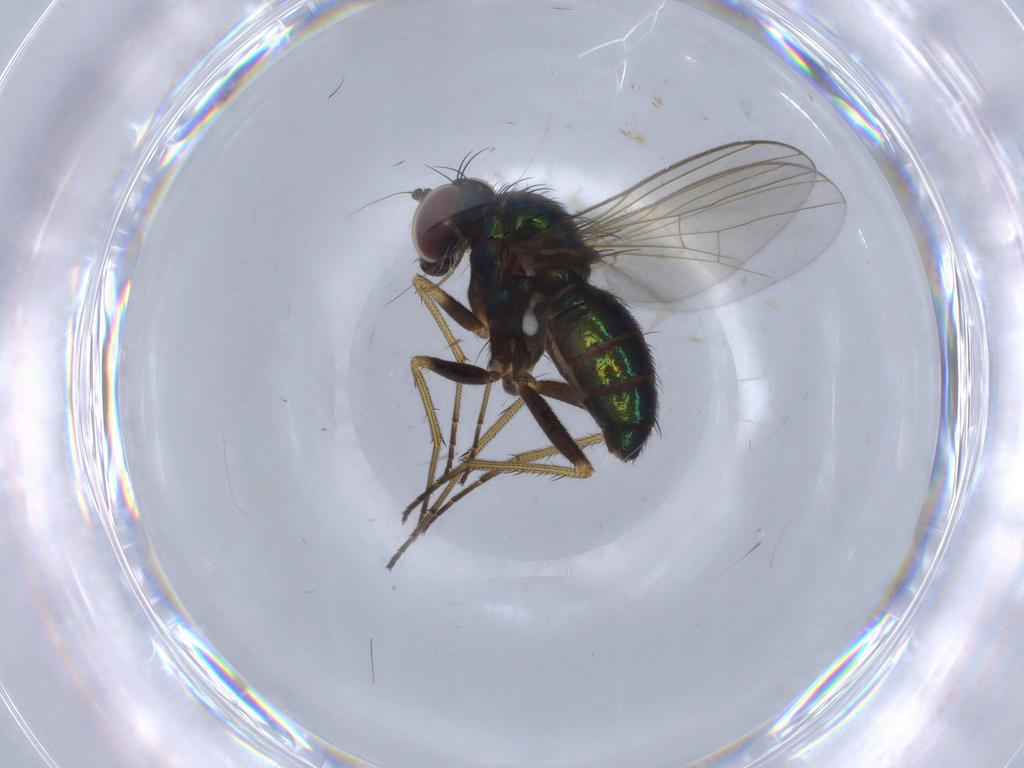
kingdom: Animalia
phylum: Arthropoda
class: Insecta
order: Diptera
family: Dolichopodidae
